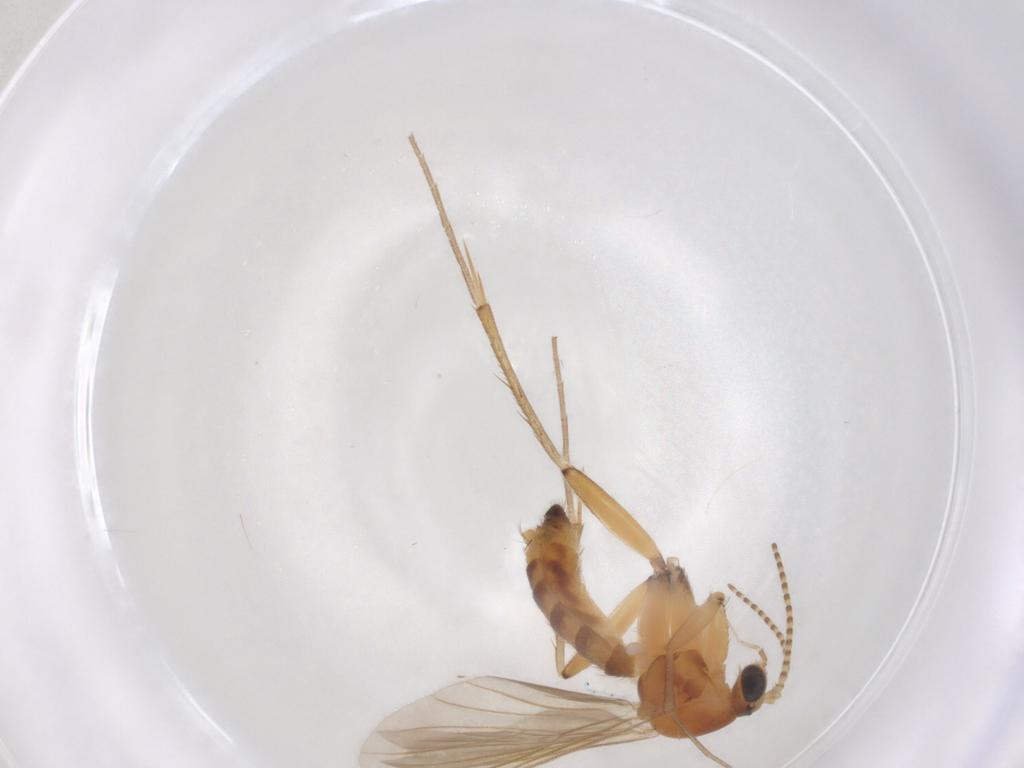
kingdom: Animalia
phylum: Arthropoda
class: Insecta
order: Diptera
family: Mycetophilidae
